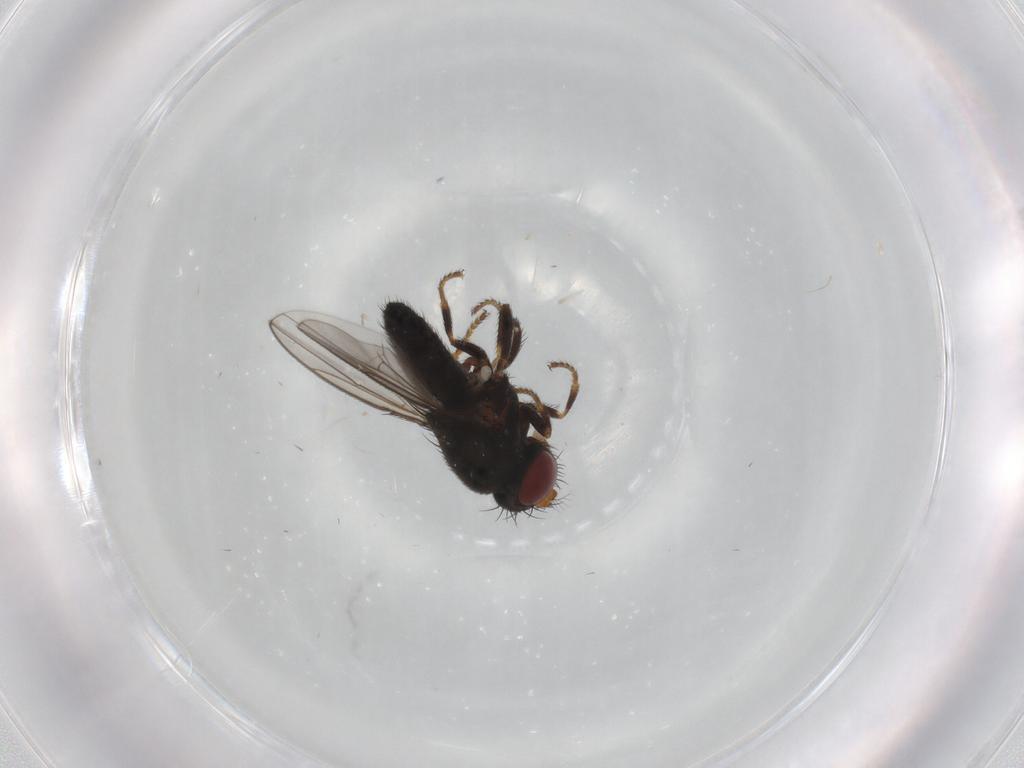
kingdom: Animalia
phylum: Arthropoda
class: Insecta
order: Diptera
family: Ephydridae
